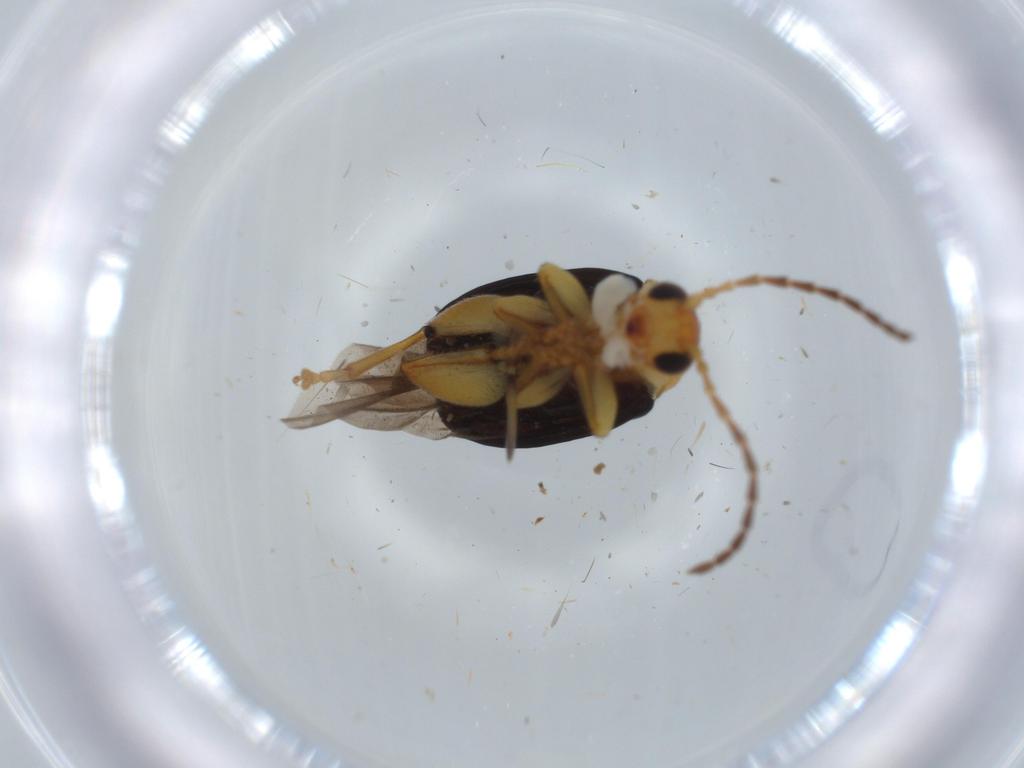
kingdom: Animalia
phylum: Arthropoda
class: Insecta
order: Coleoptera
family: Chrysomelidae
